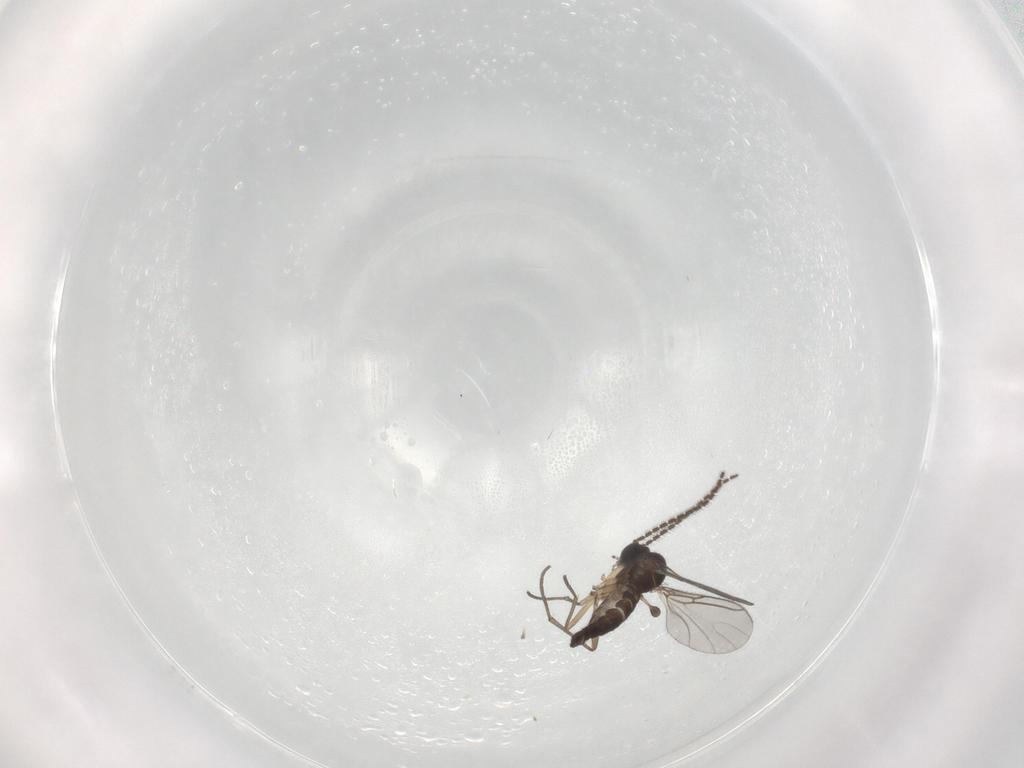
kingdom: Animalia
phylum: Arthropoda
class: Insecta
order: Diptera
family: Sciaridae
